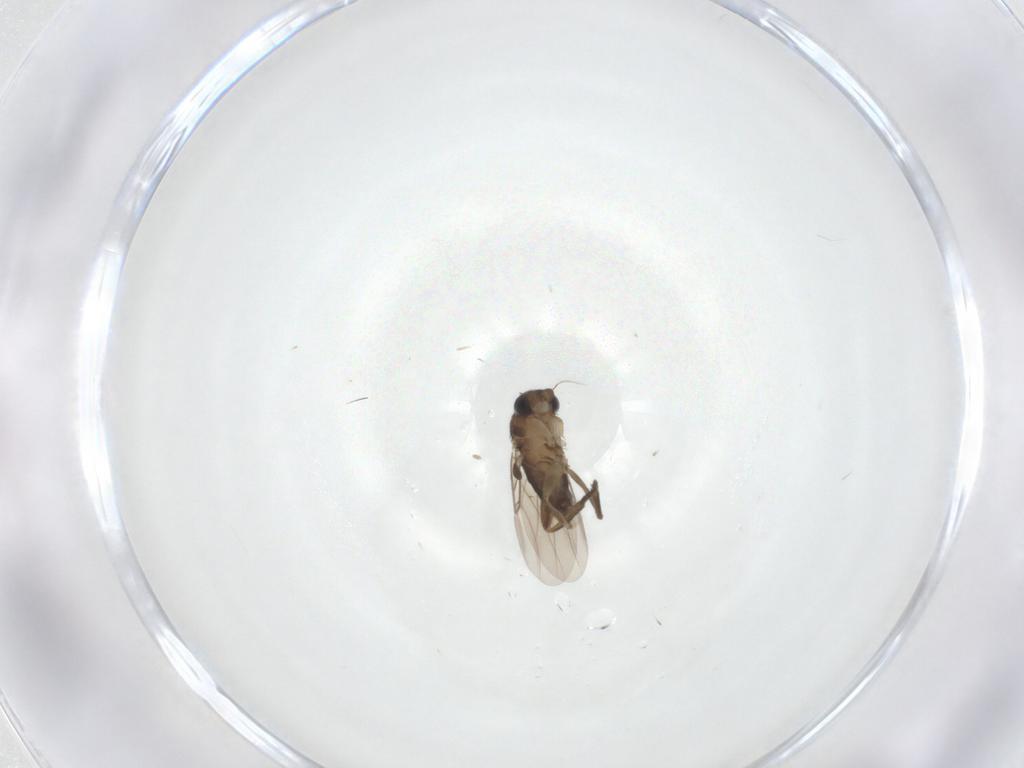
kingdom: Animalia
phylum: Arthropoda
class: Insecta
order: Diptera
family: Phoridae
